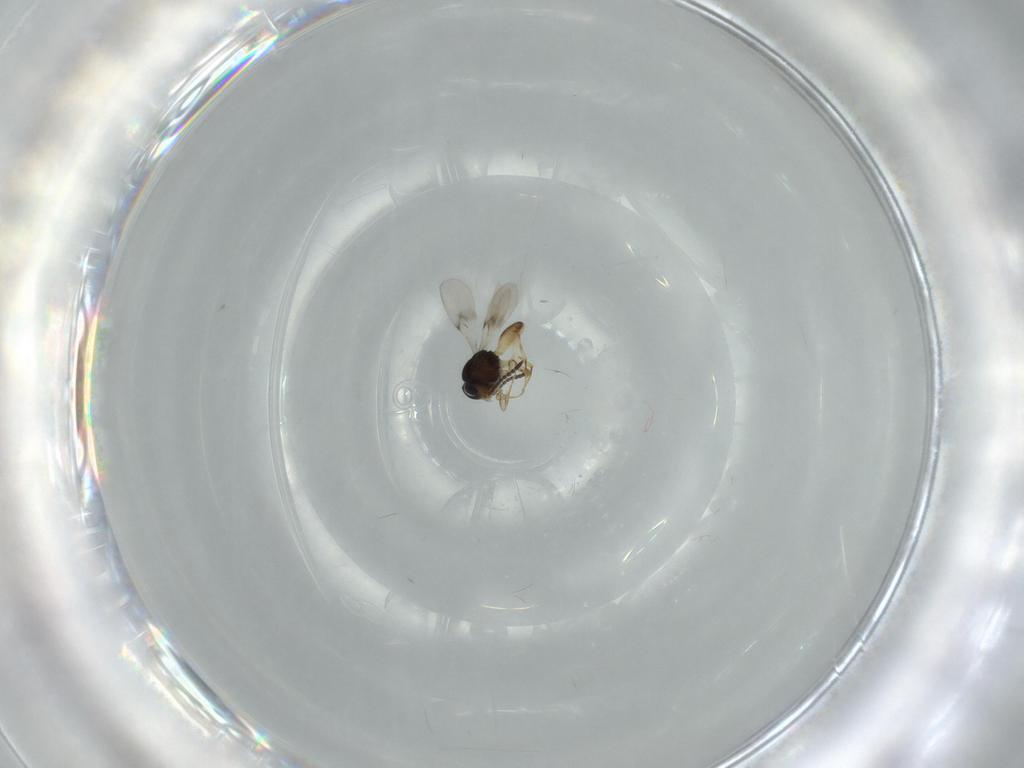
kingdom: Animalia
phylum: Arthropoda
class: Insecta
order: Hymenoptera
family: Scelionidae
